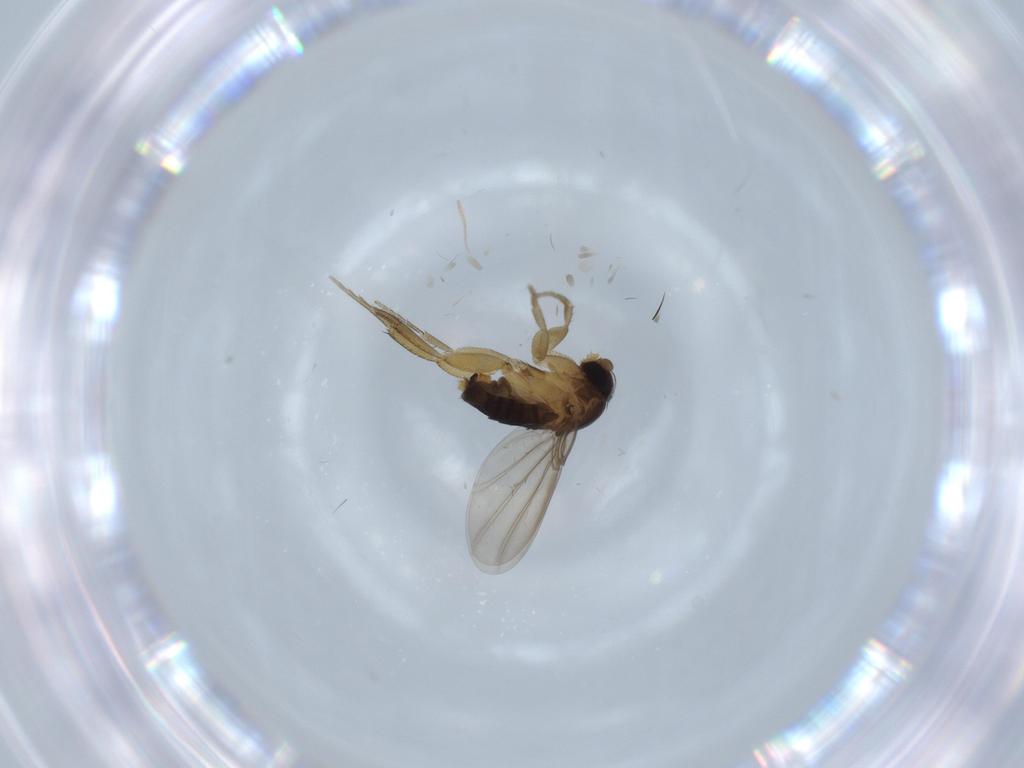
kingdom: Animalia
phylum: Arthropoda
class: Insecta
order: Diptera
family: Phoridae
